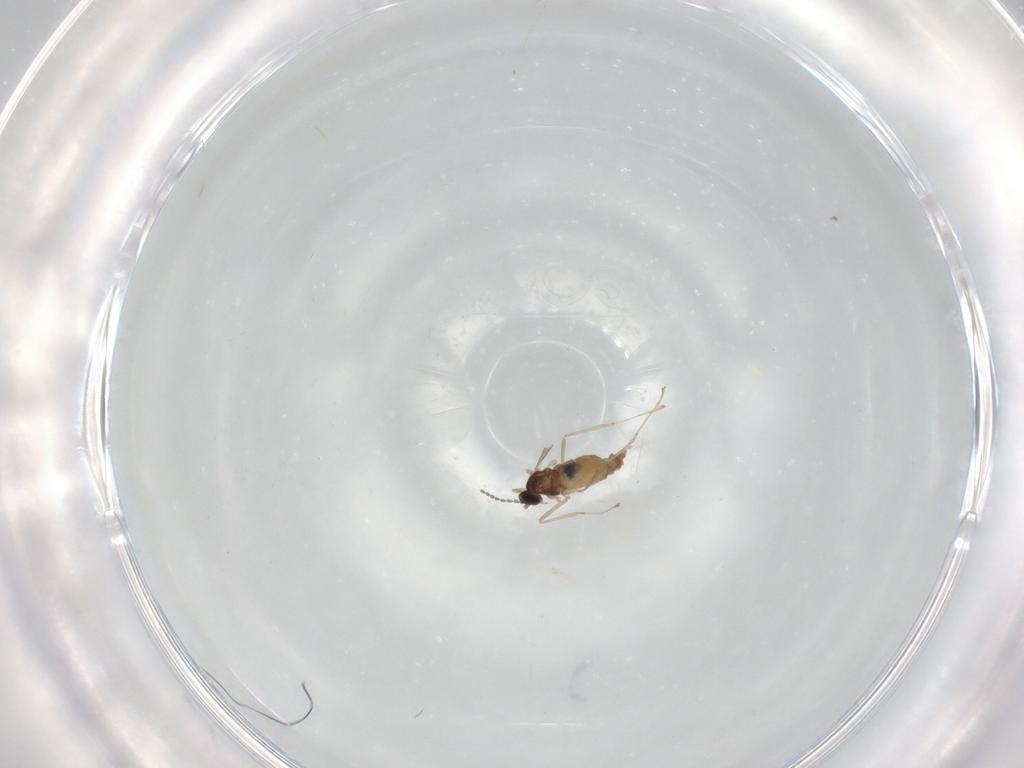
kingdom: Animalia
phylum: Arthropoda
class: Insecta
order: Diptera
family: Cecidomyiidae
